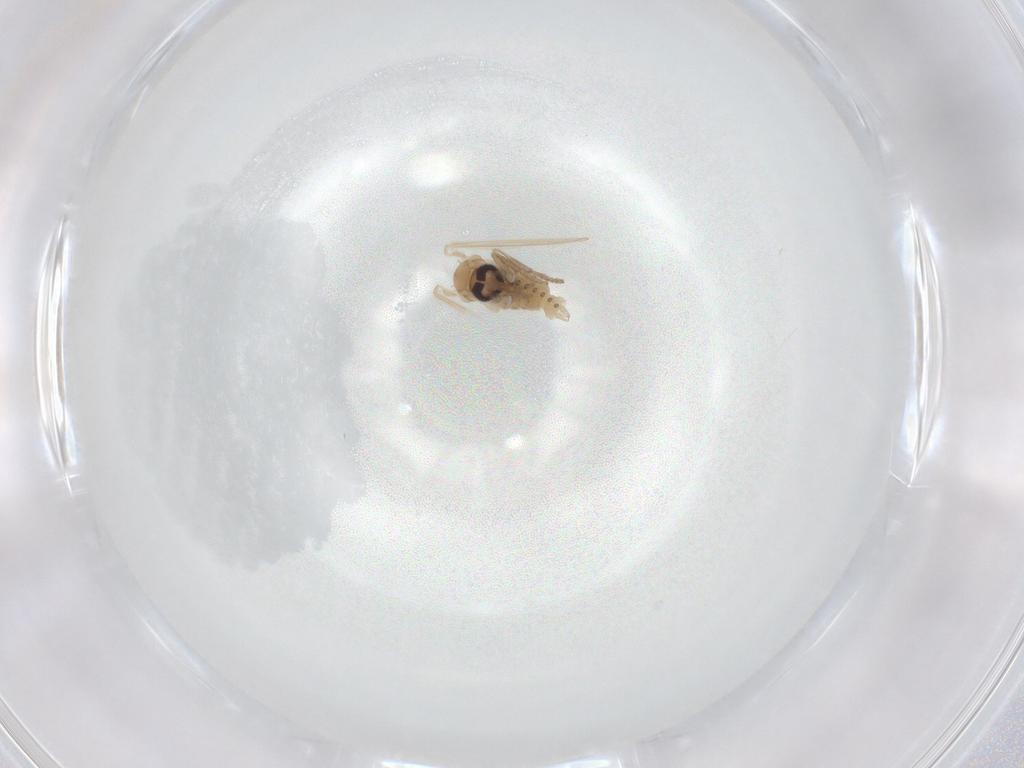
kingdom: Animalia
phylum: Arthropoda
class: Insecta
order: Diptera
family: Psychodidae
